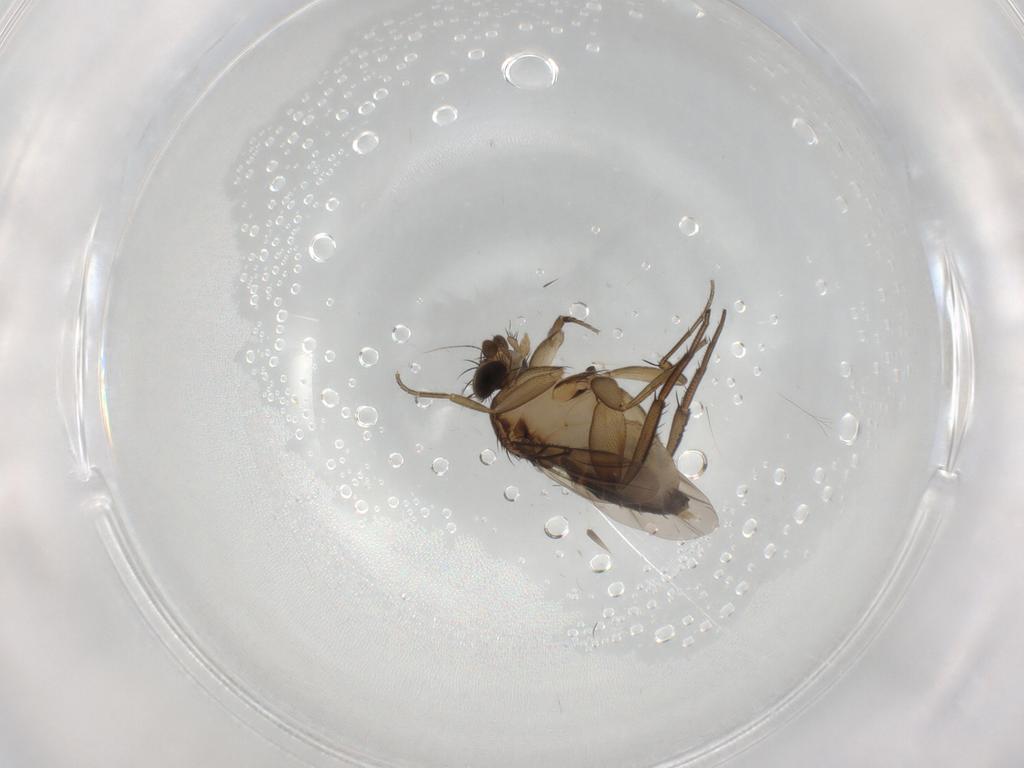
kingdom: Animalia
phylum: Arthropoda
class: Insecta
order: Diptera
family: Phoridae
